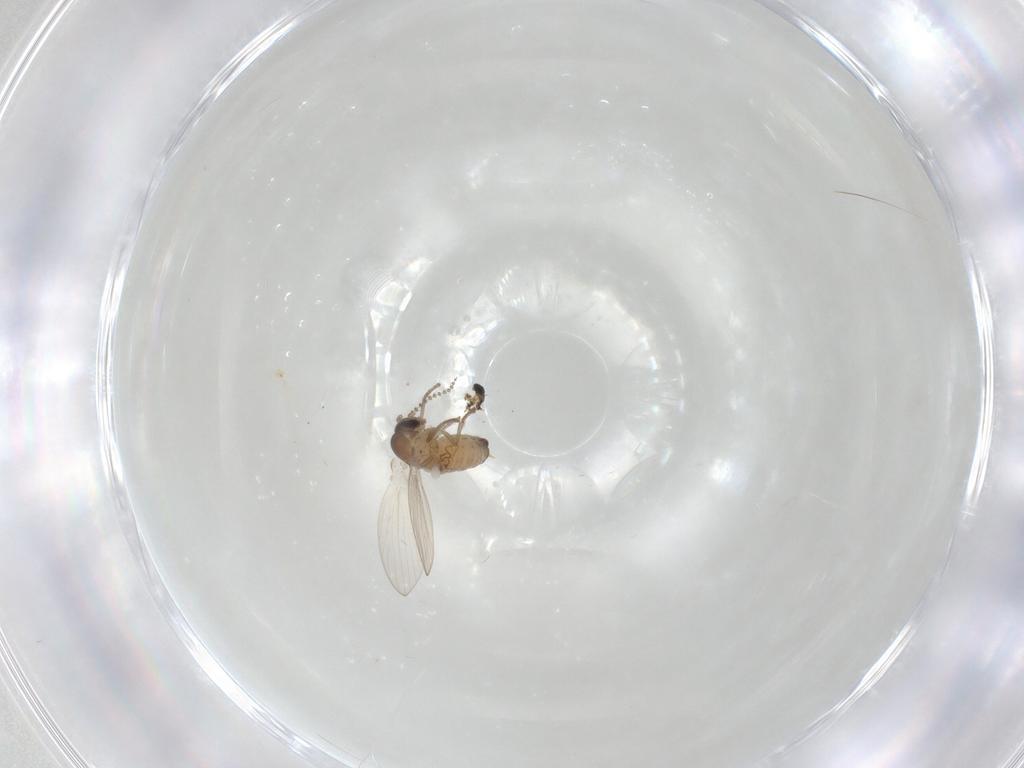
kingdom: Animalia
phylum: Arthropoda
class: Insecta
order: Diptera
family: Psychodidae
